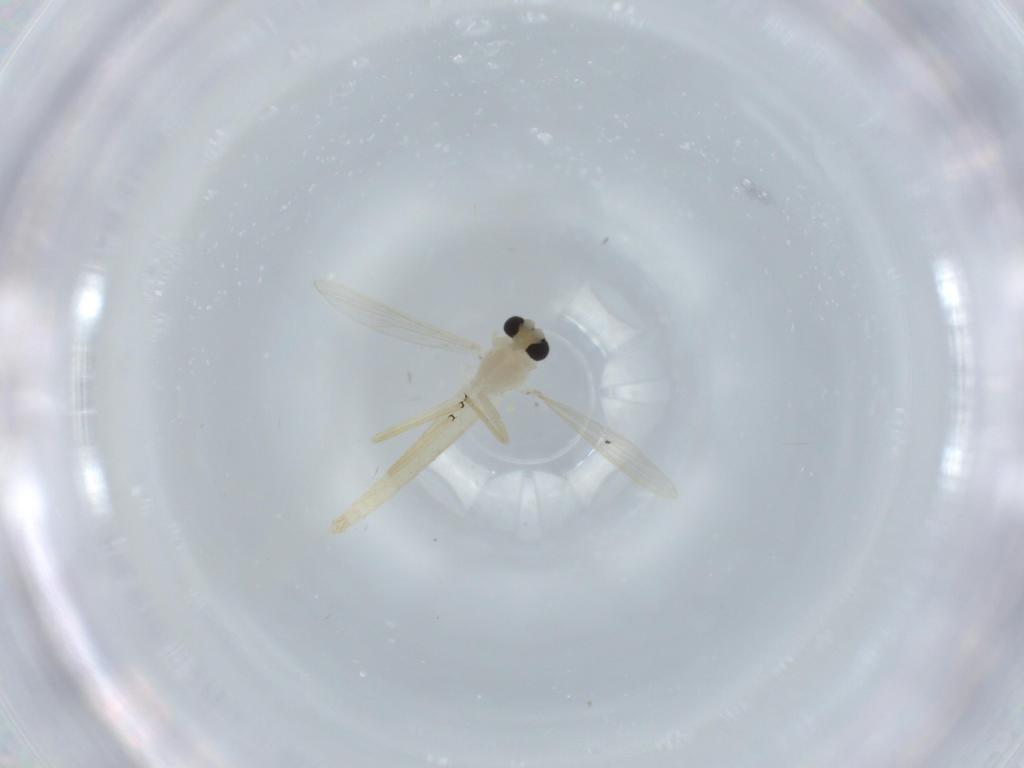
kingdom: Animalia
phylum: Arthropoda
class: Insecta
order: Diptera
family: Chironomidae
